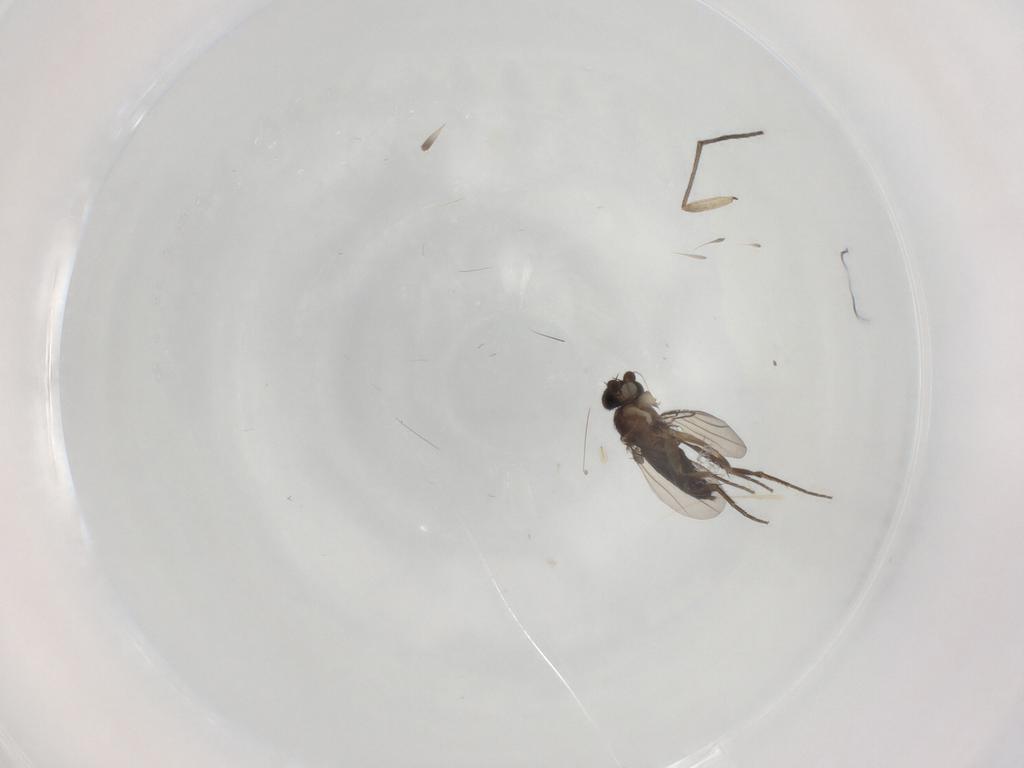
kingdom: Animalia
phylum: Arthropoda
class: Insecta
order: Diptera
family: Phoridae
